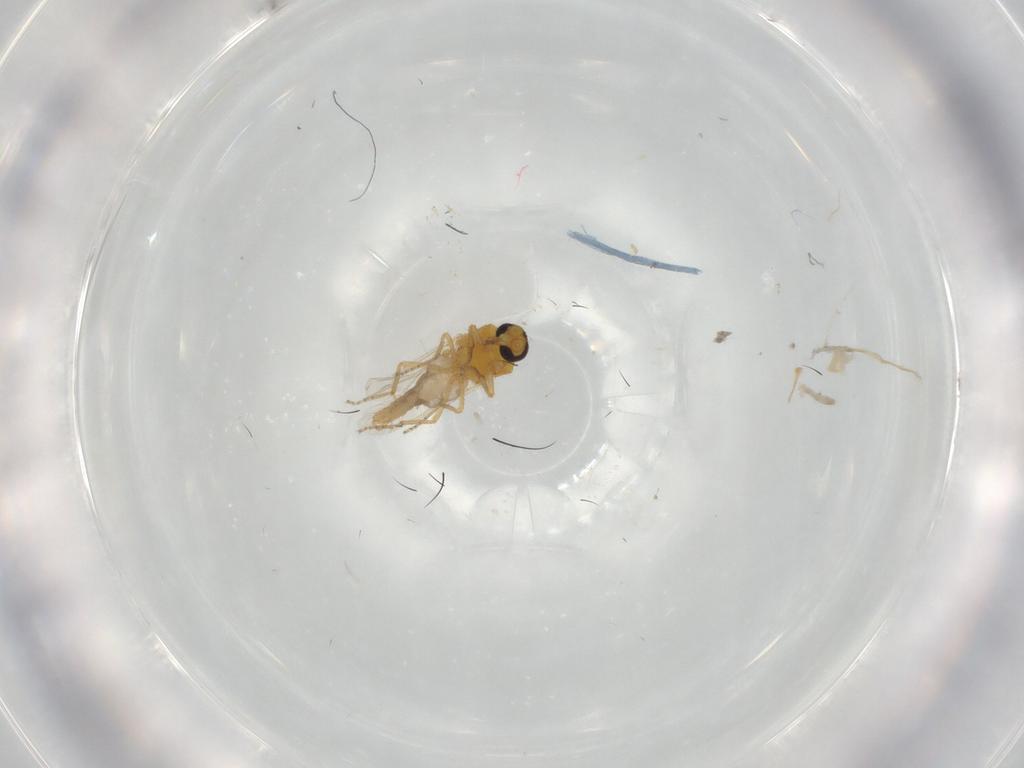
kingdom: Animalia
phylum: Arthropoda
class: Insecta
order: Diptera
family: Ceratopogonidae
